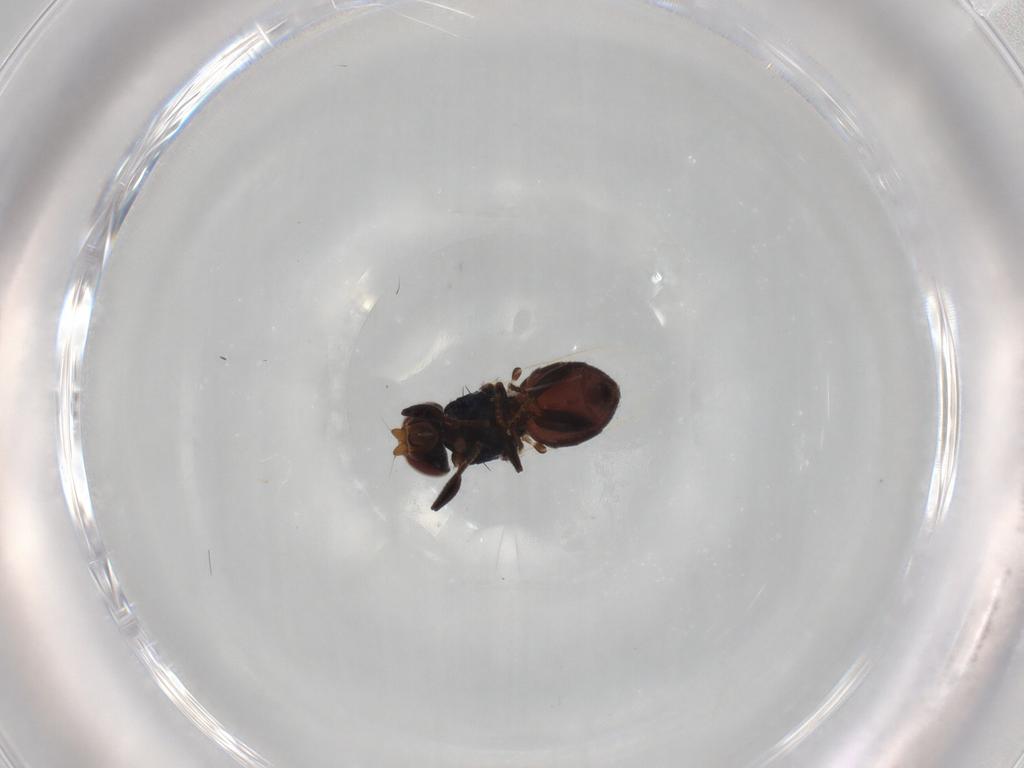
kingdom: Animalia
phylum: Arthropoda
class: Insecta
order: Diptera
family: Chloropidae
